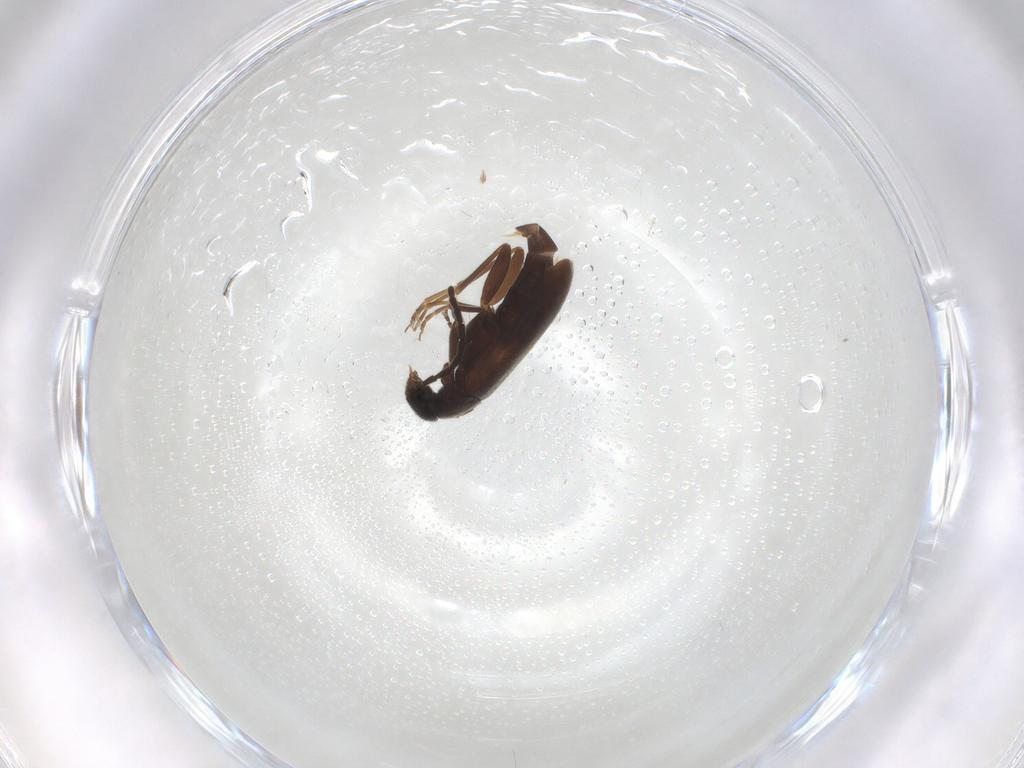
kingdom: Animalia
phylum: Arthropoda
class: Insecta
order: Coleoptera
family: Scraptiidae
